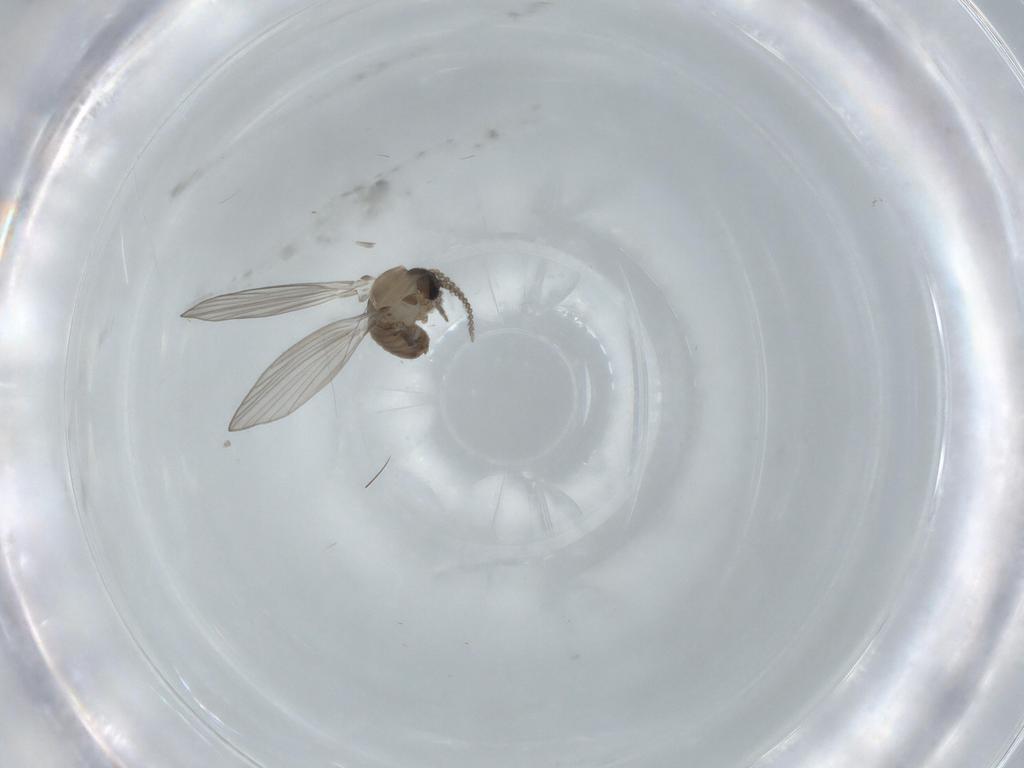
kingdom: Animalia
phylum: Arthropoda
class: Insecta
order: Diptera
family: Psychodidae
